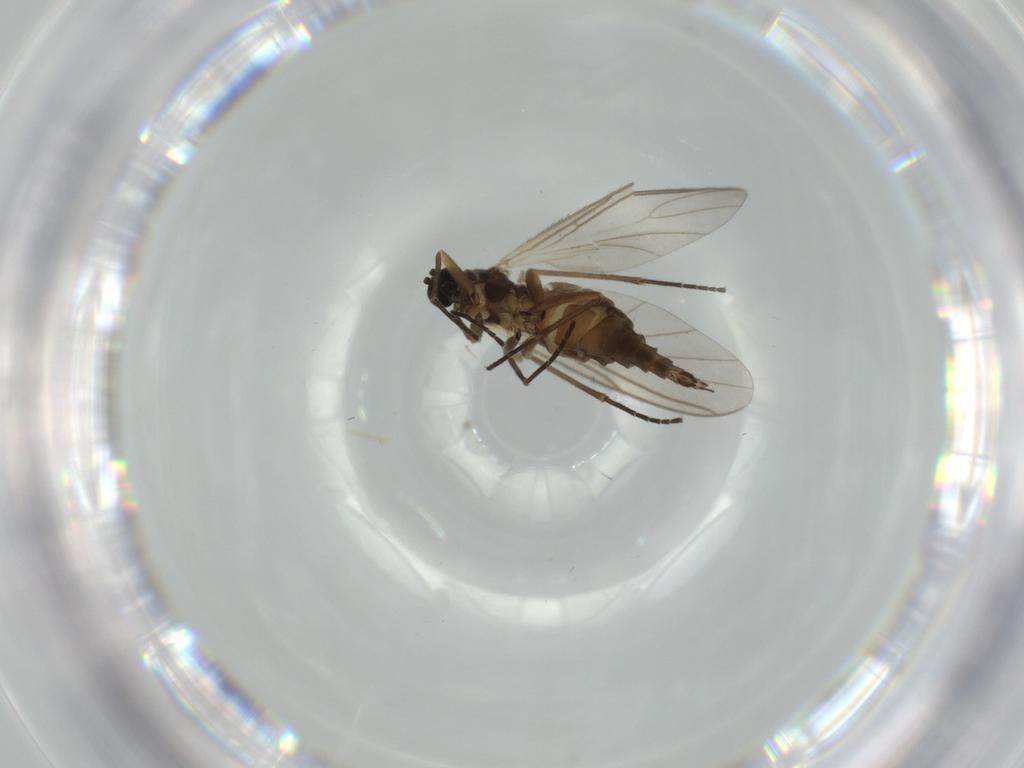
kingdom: Animalia
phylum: Arthropoda
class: Insecta
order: Diptera
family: Sciaridae
